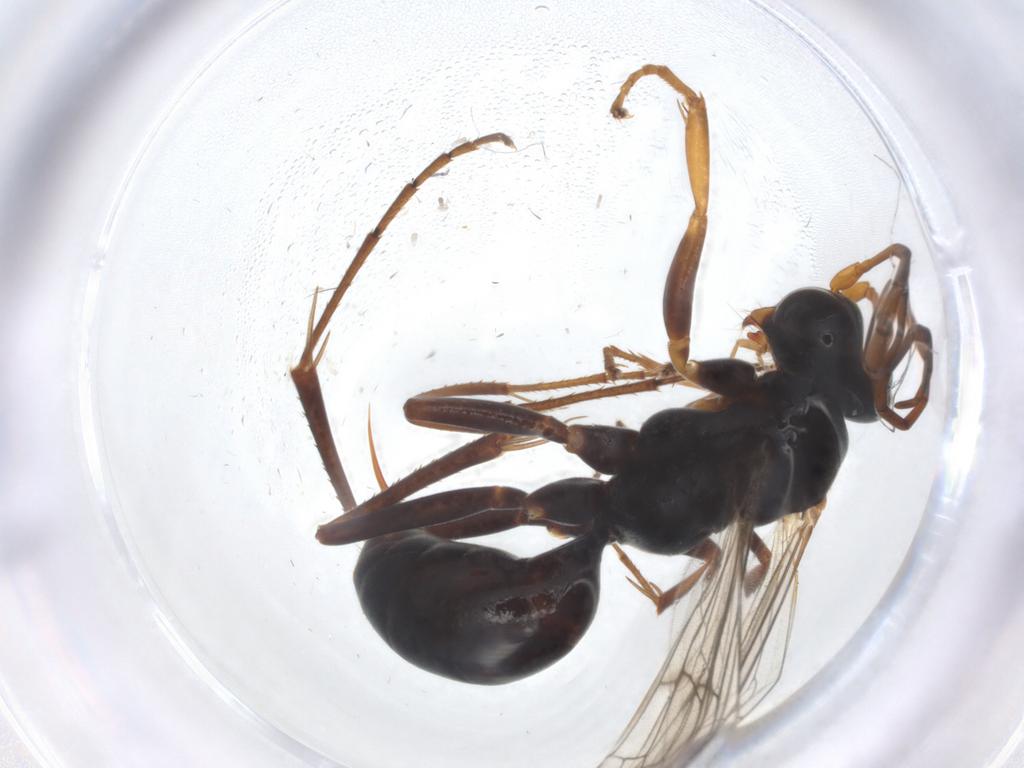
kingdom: Animalia
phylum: Arthropoda
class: Insecta
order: Hymenoptera
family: Pompilidae
